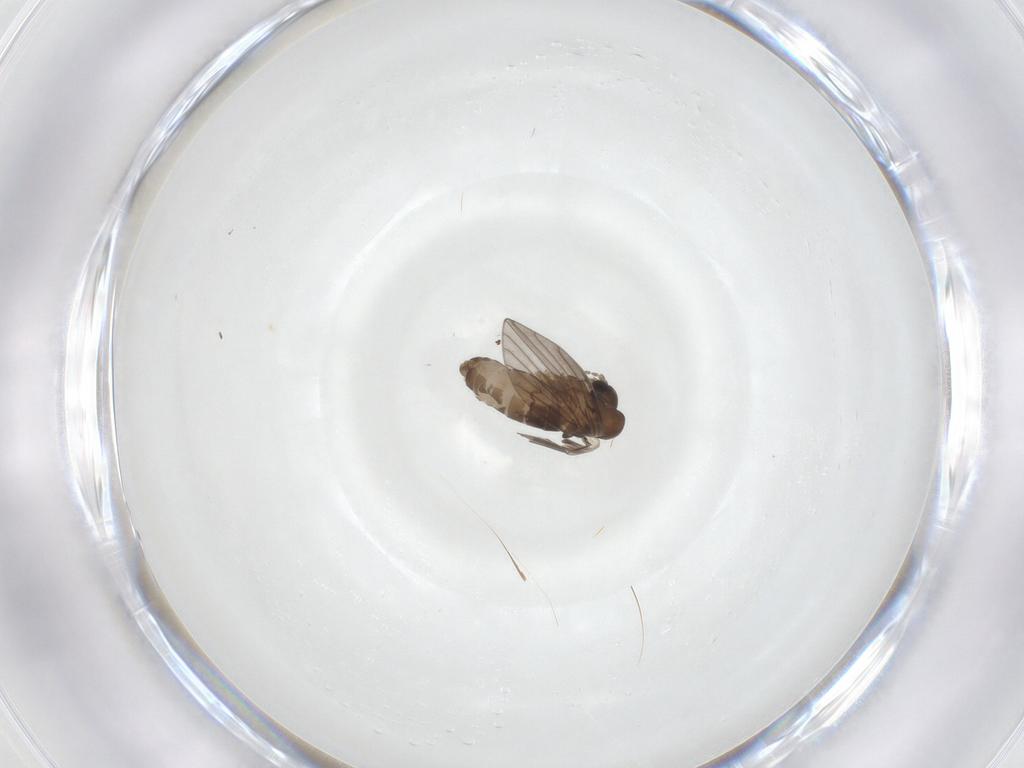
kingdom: Animalia
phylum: Arthropoda
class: Insecta
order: Diptera
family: Psychodidae
